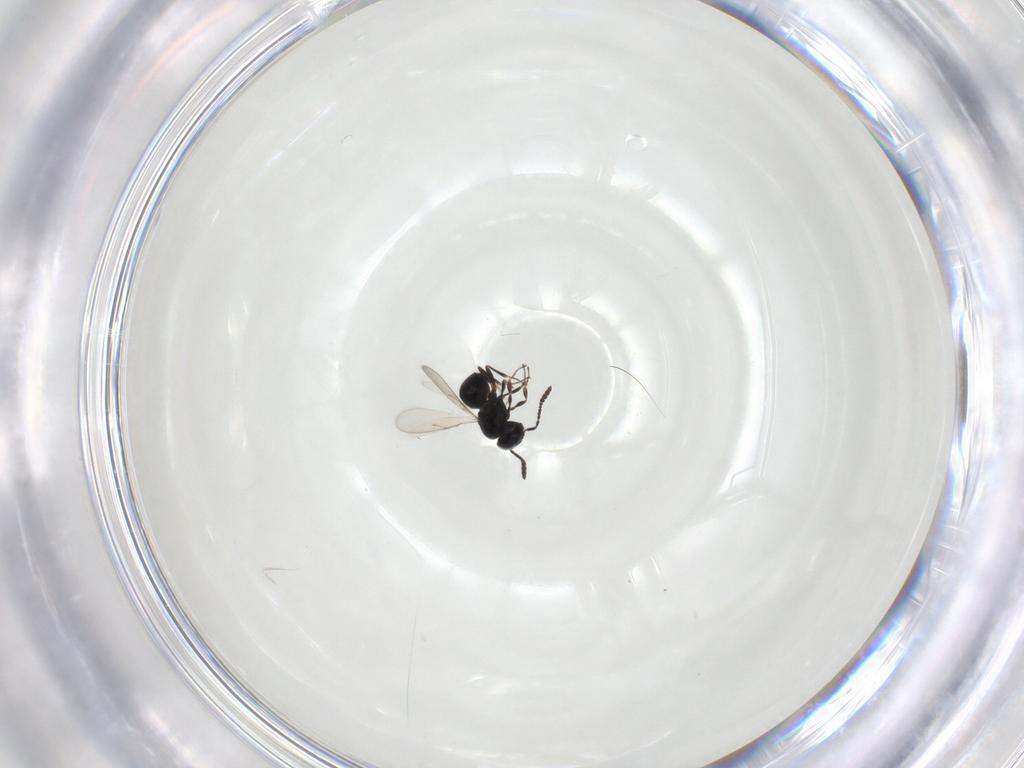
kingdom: Animalia
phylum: Arthropoda
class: Insecta
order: Hymenoptera
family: Scelionidae
